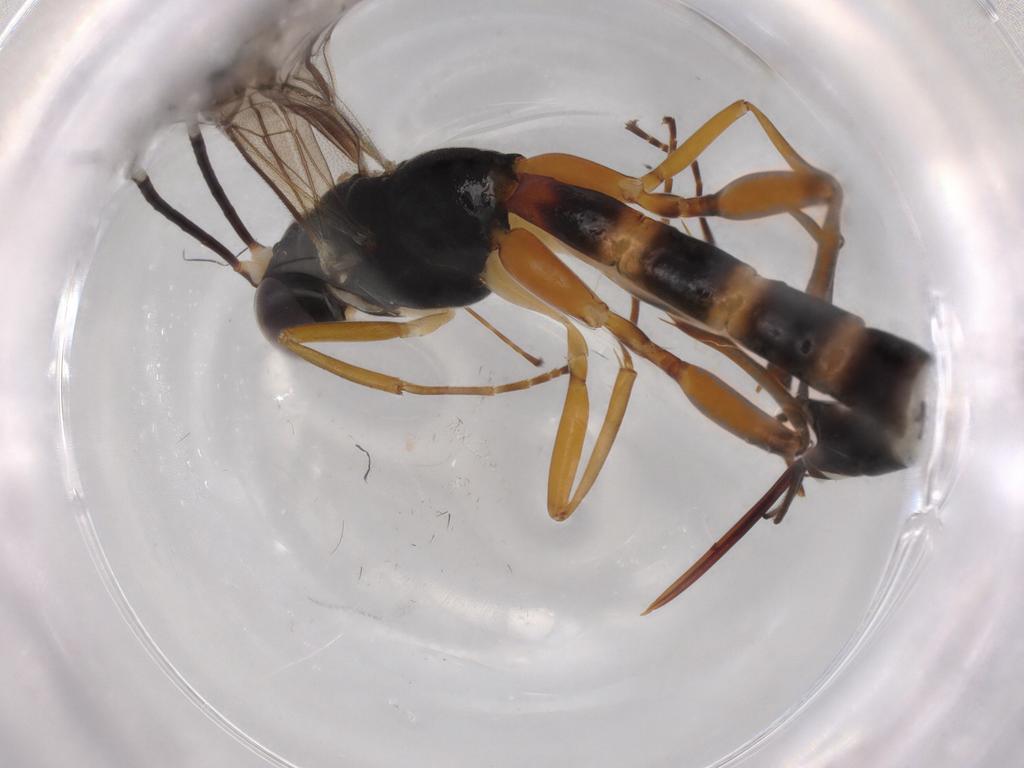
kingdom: Animalia
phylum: Arthropoda
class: Insecta
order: Hymenoptera
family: Ichneumonidae
